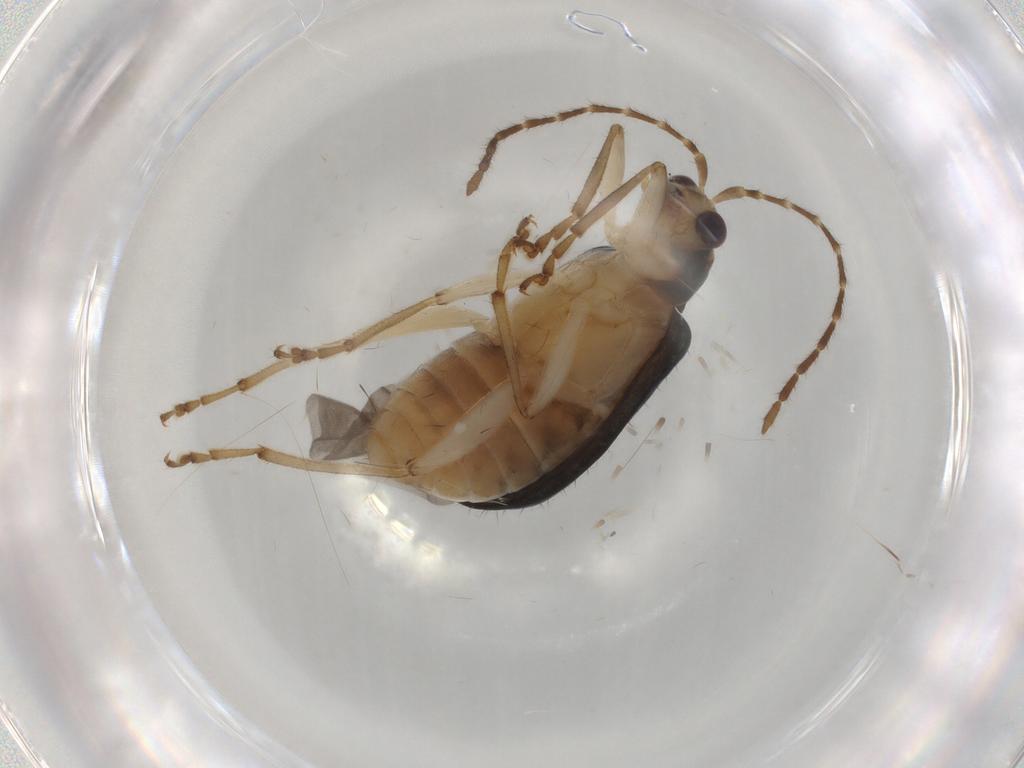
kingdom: Animalia
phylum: Arthropoda
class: Insecta
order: Coleoptera
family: Chrysomelidae
